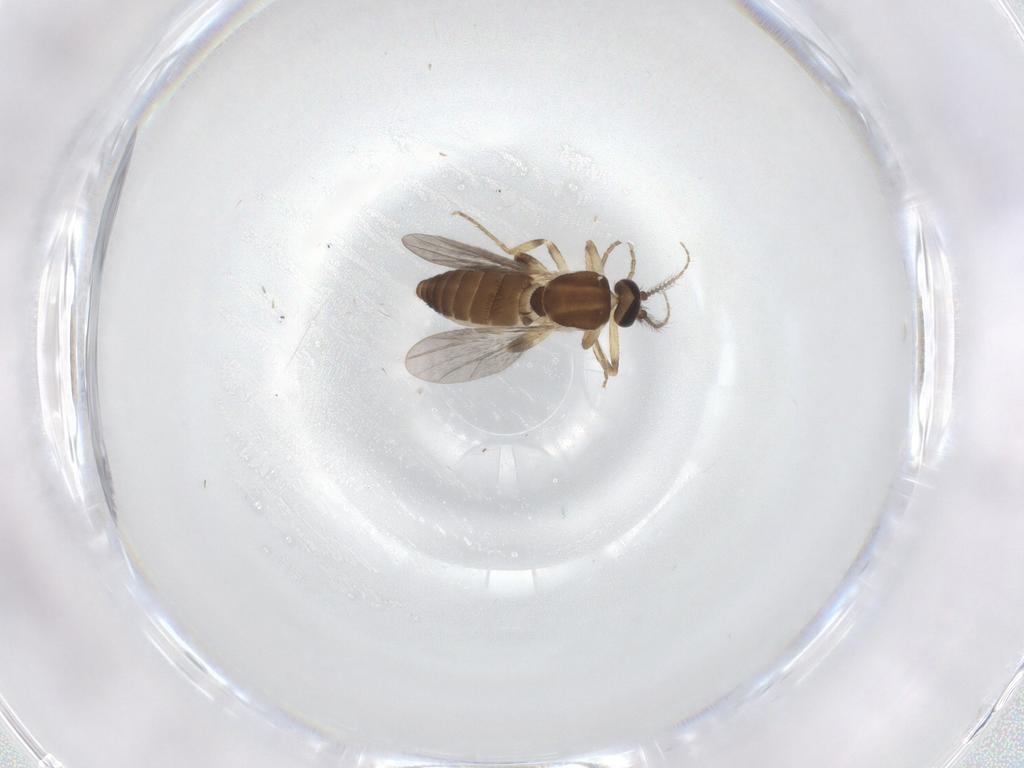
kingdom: Animalia
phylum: Arthropoda
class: Insecta
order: Diptera
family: Ceratopogonidae
